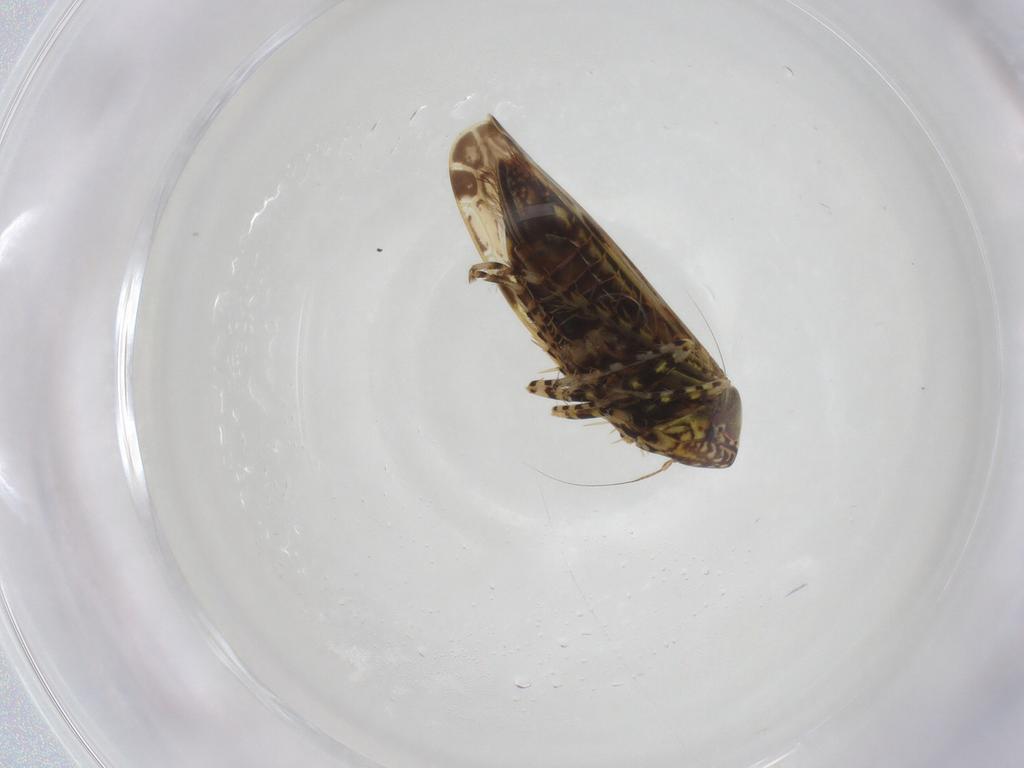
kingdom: Animalia
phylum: Arthropoda
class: Insecta
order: Hemiptera
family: Cicadellidae
